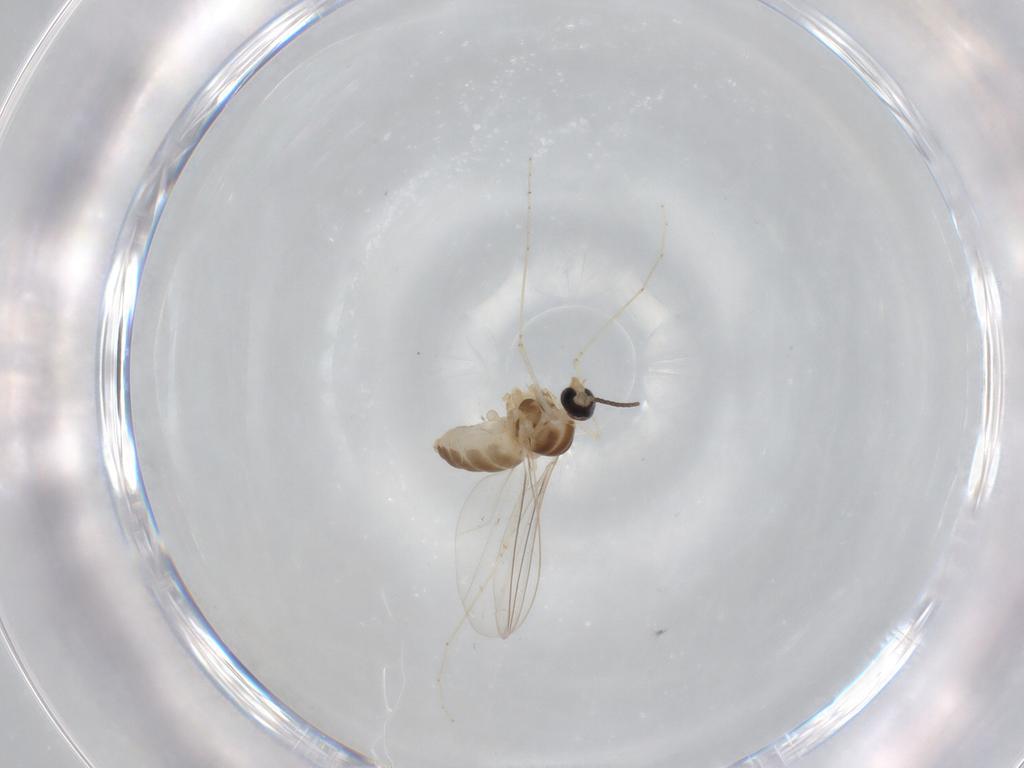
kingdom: Animalia
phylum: Arthropoda
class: Insecta
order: Diptera
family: Cecidomyiidae
